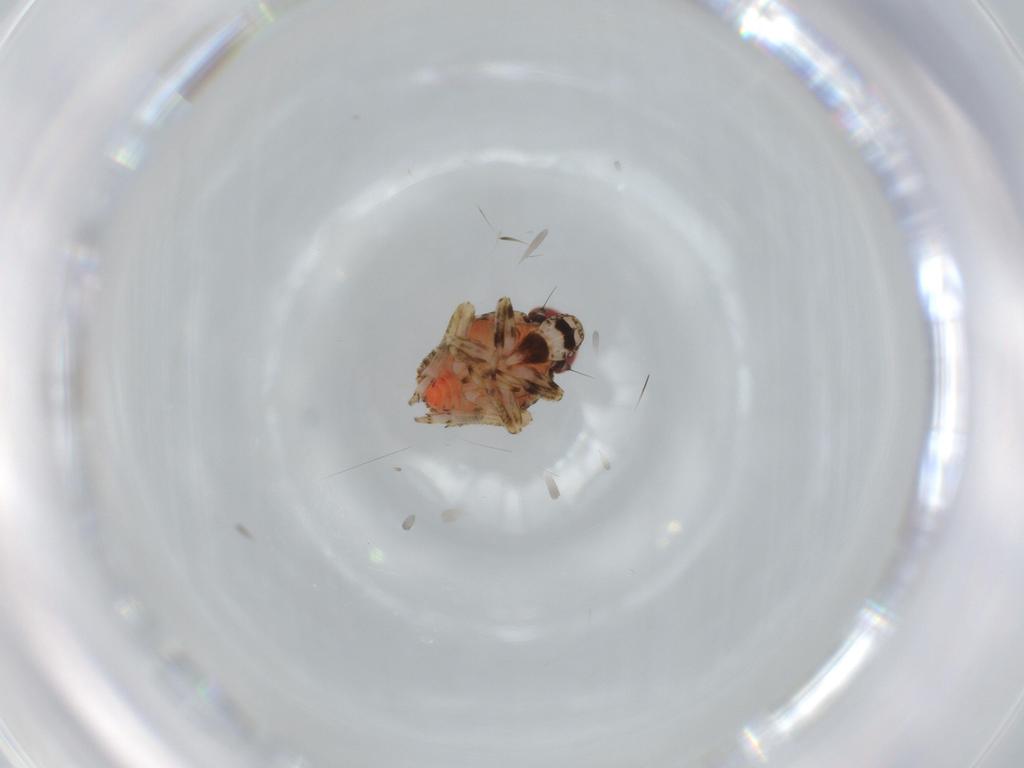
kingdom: Animalia
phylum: Arthropoda
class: Insecta
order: Hemiptera
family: Issidae
